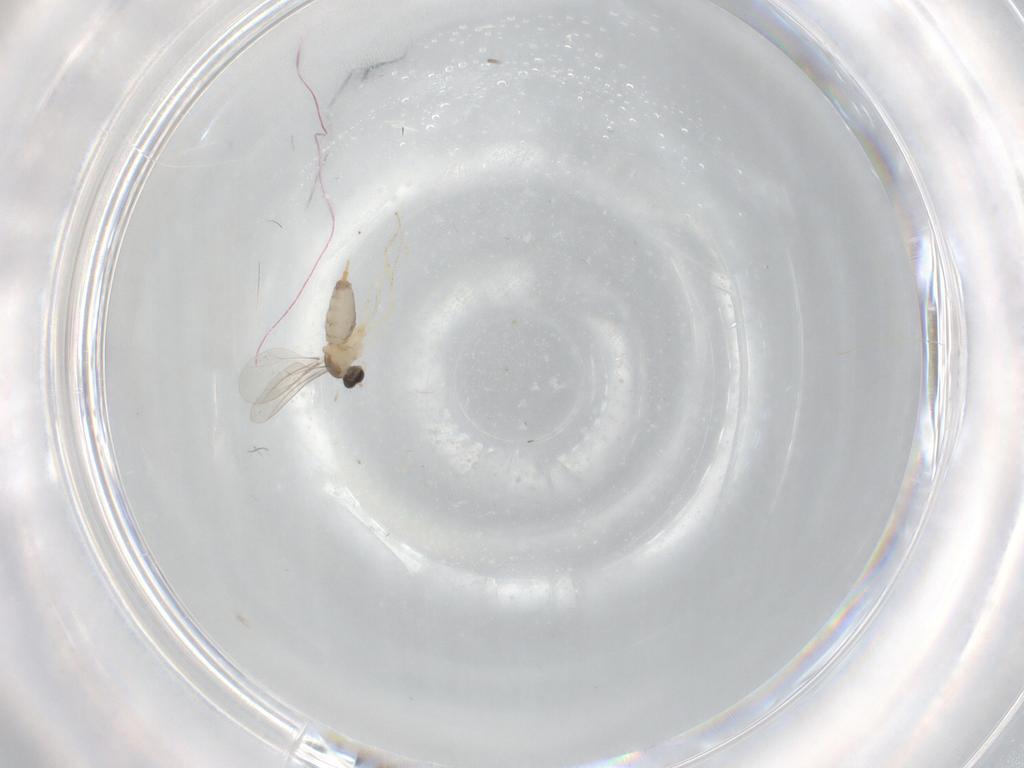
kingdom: Animalia
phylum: Arthropoda
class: Insecta
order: Diptera
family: Cecidomyiidae
